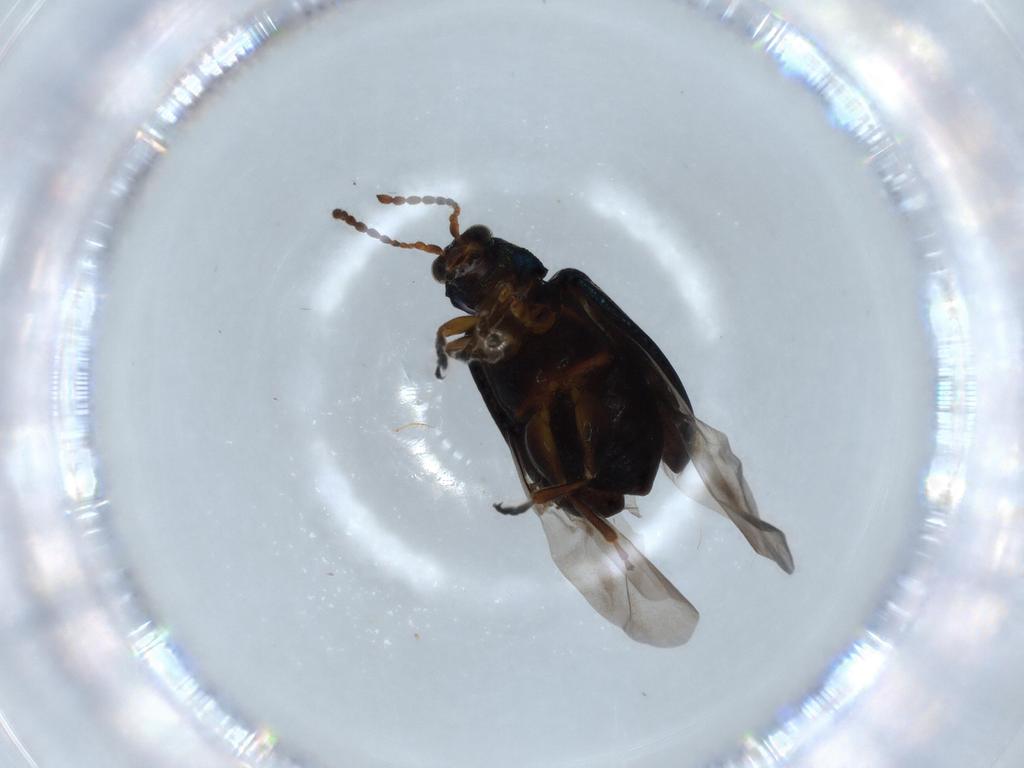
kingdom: Animalia
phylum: Arthropoda
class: Insecta
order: Coleoptera
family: Chrysomelidae
